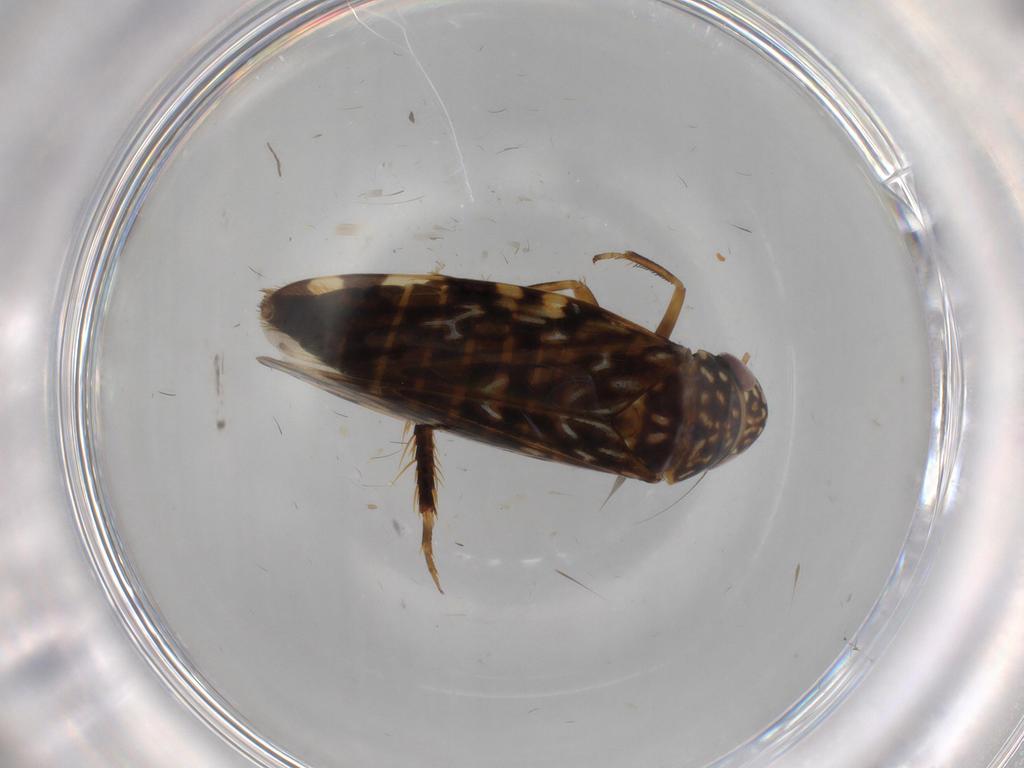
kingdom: Animalia
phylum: Arthropoda
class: Insecta
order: Hemiptera
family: Cicadellidae
